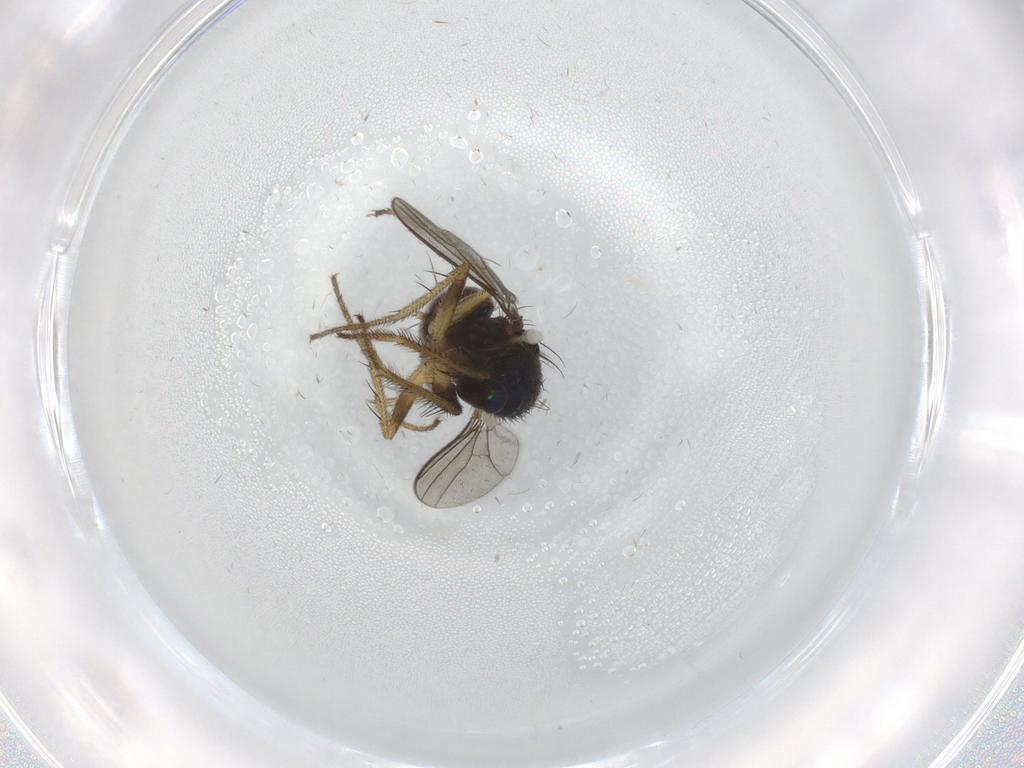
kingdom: Animalia
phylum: Arthropoda
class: Insecta
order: Diptera
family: Dolichopodidae
